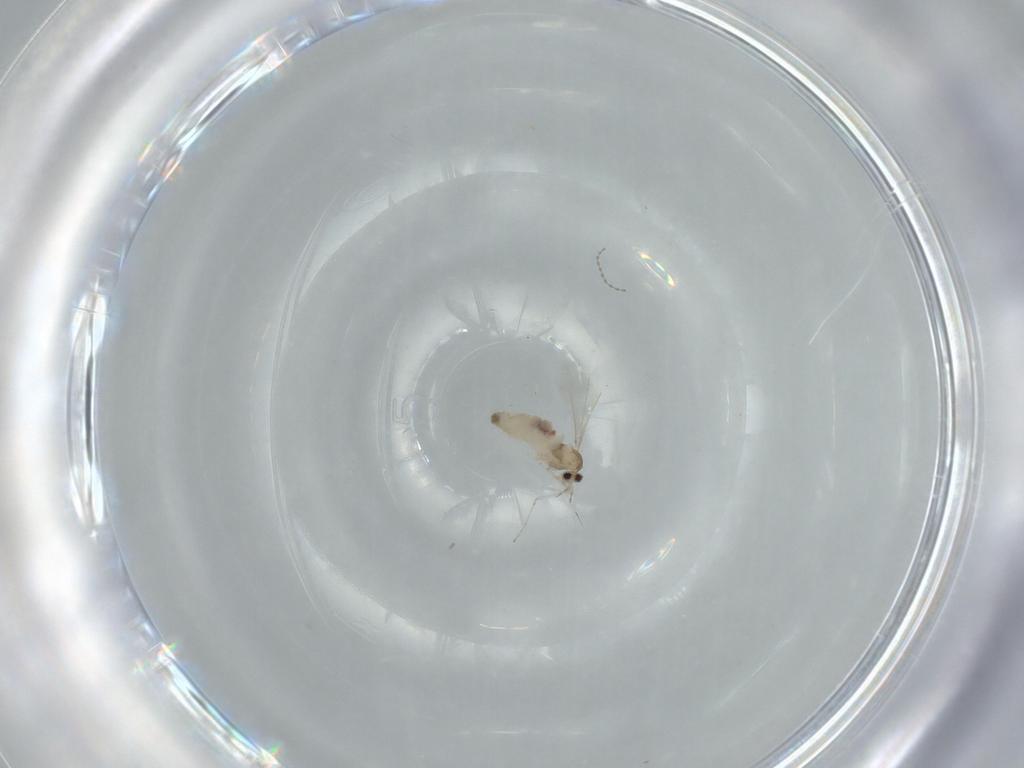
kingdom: Animalia
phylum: Arthropoda
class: Insecta
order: Diptera
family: Cecidomyiidae
